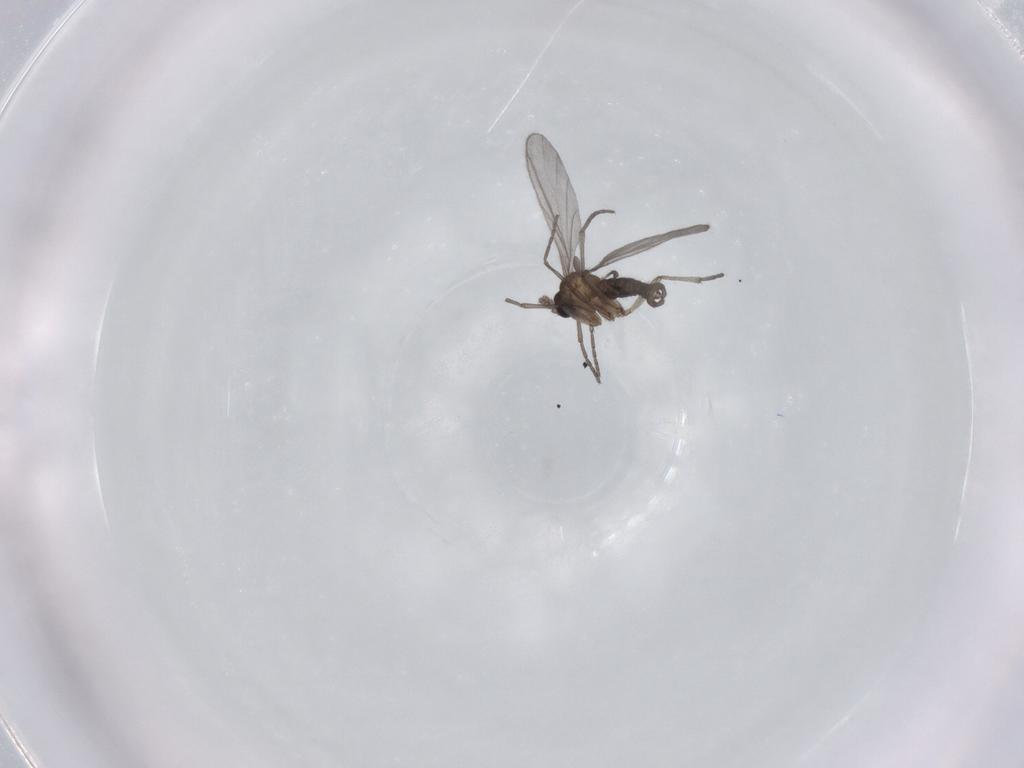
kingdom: Animalia
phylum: Arthropoda
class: Insecta
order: Diptera
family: Sciaridae
